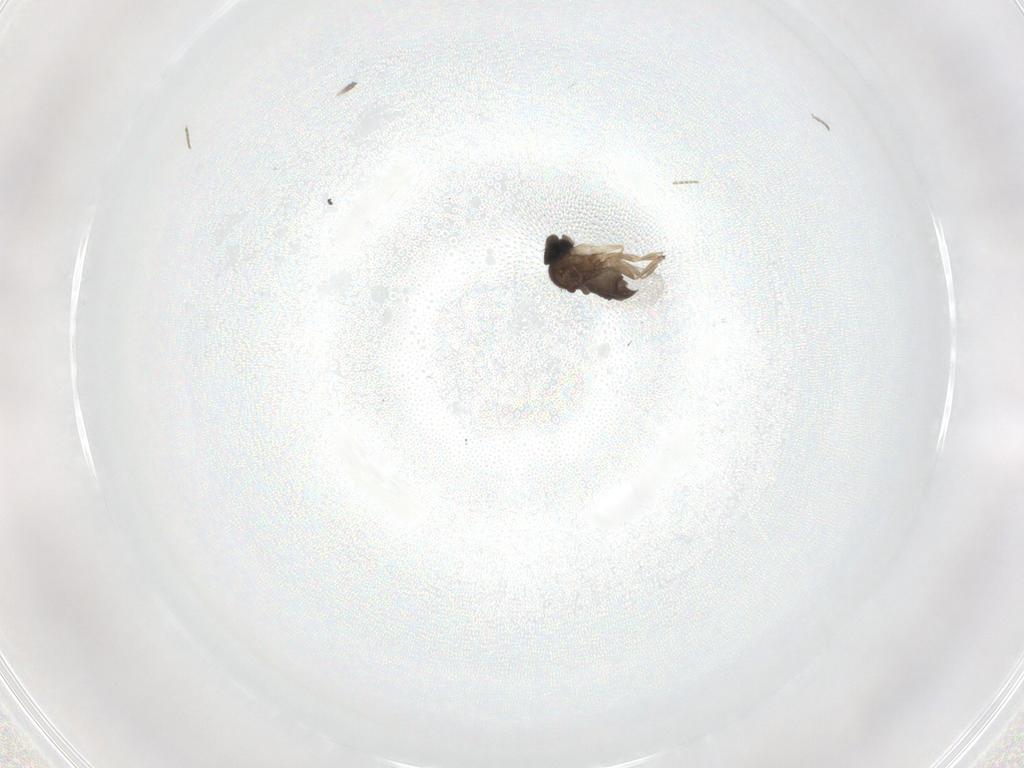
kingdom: Animalia
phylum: Arthropoda
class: Insecta
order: Diptera
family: Phoridae
